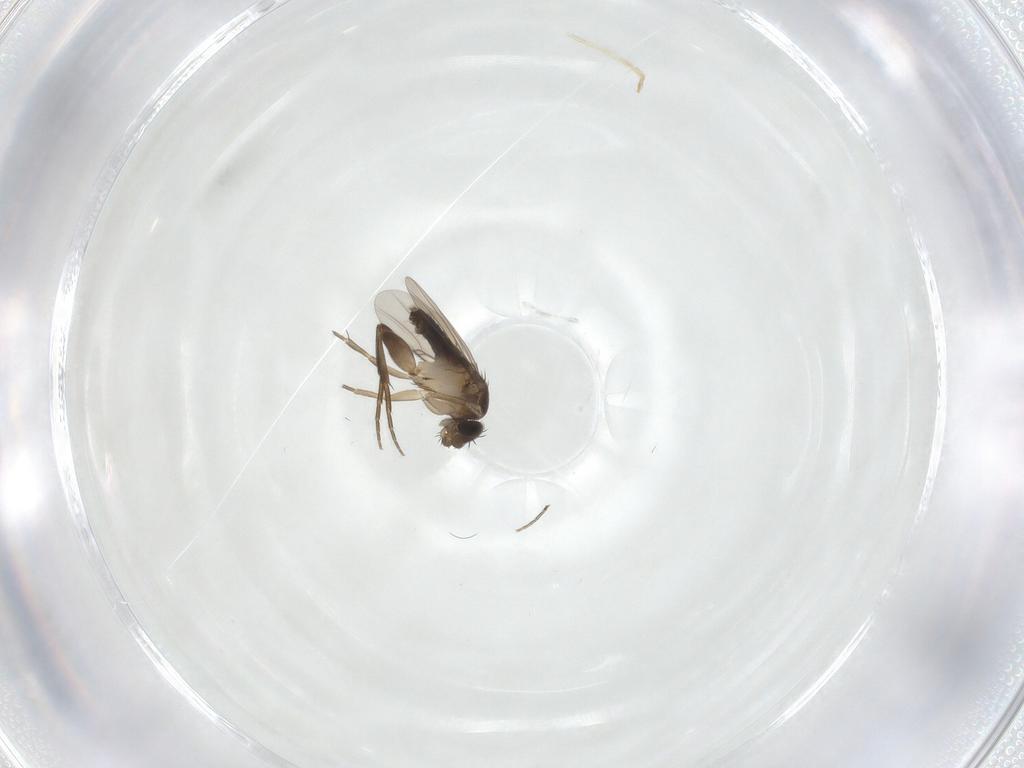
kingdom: Animalia
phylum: Arthropoda
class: Insecta
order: Diptera
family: Phoridae
